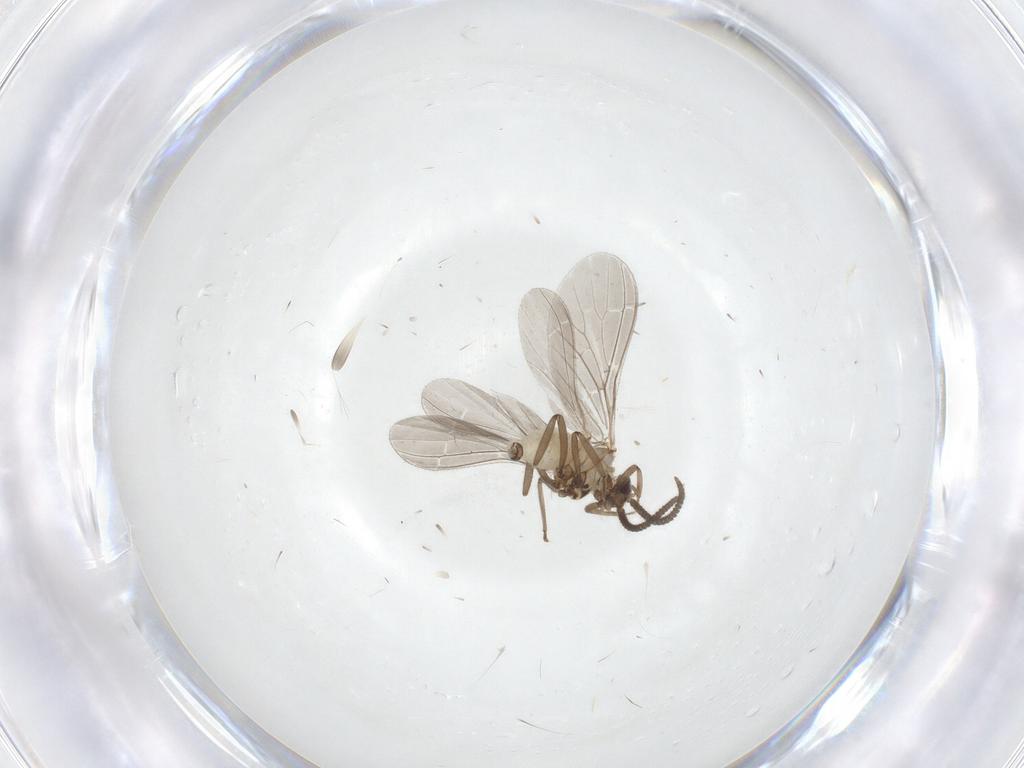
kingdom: Animalia
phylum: Arthropoda
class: Insecta
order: Neuroptera
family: Coniopterygidae
